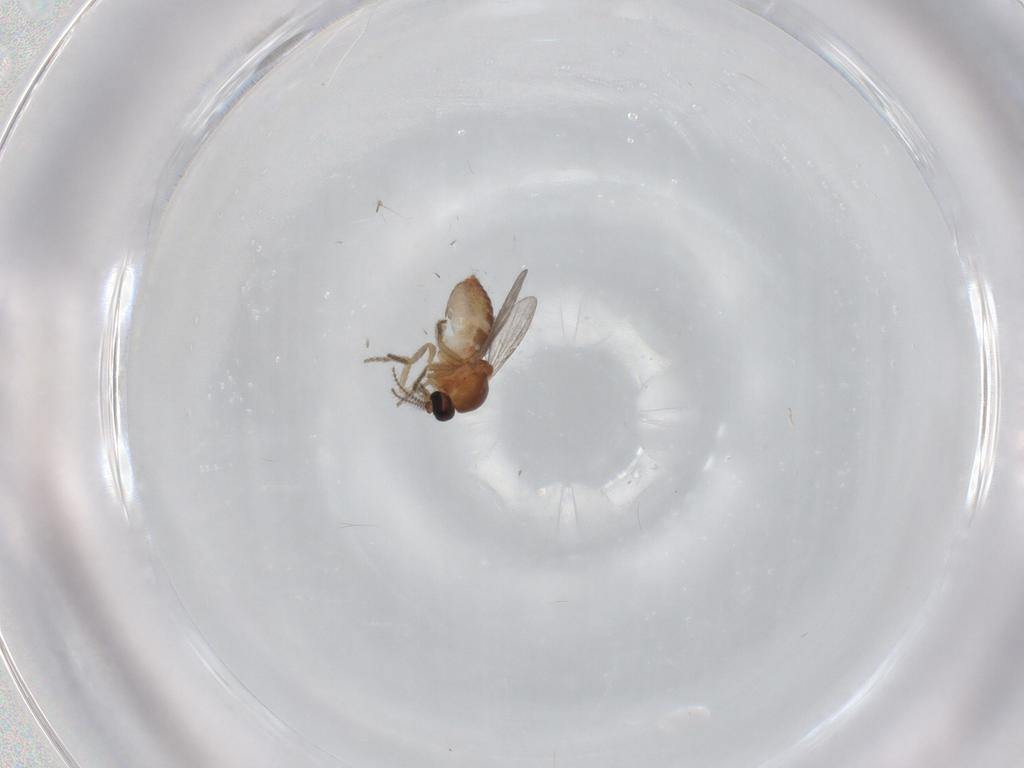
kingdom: Animalia
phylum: Arthropoda
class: Insecta
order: Diptera
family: Ceratopogonidae
